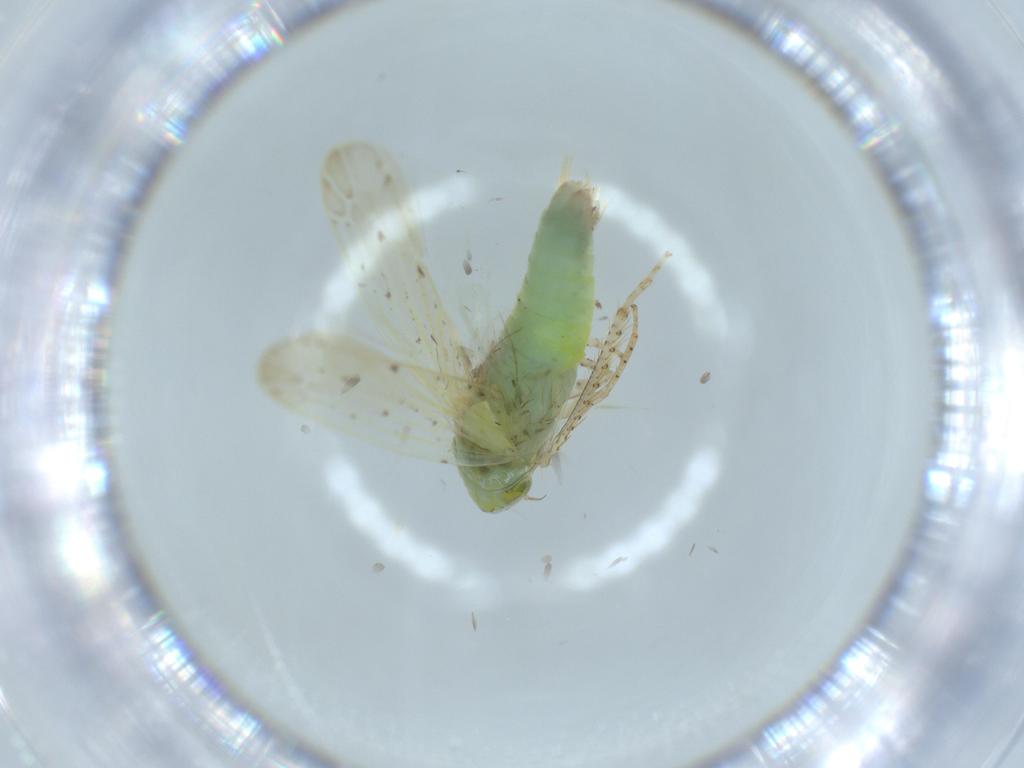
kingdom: Animalia
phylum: Arthropoda
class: Insecta
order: Hemiptera
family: Cicadellidae
